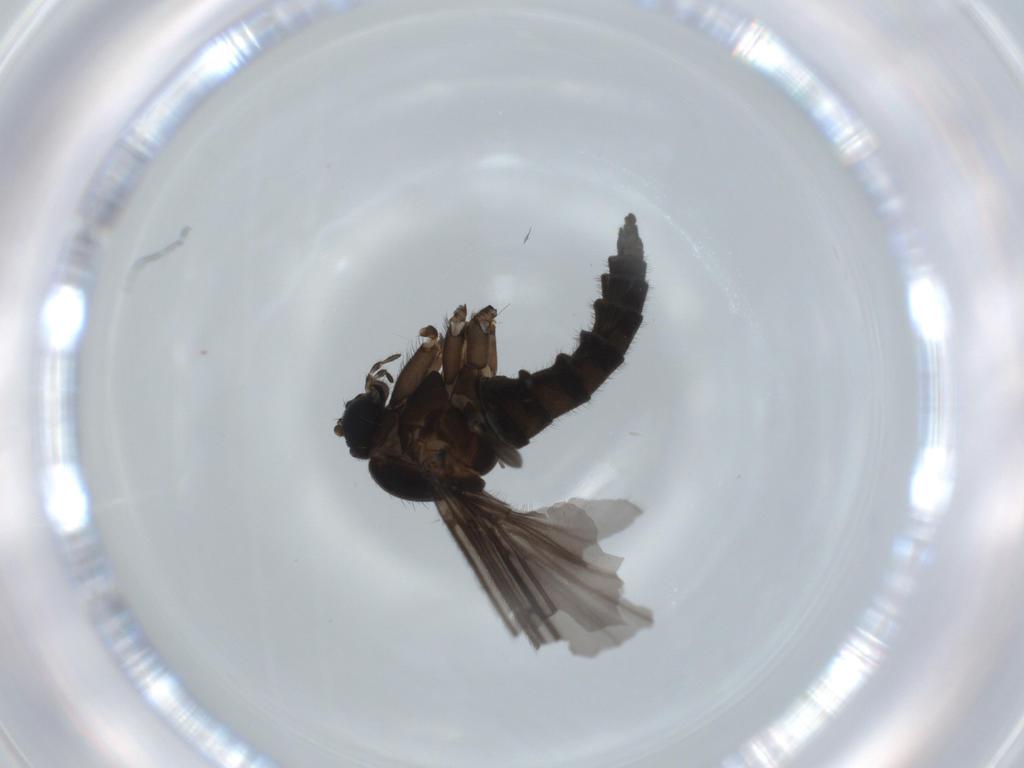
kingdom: Animalia
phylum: Arthropoda
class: Insecta
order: Diptera
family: Sciaridae
